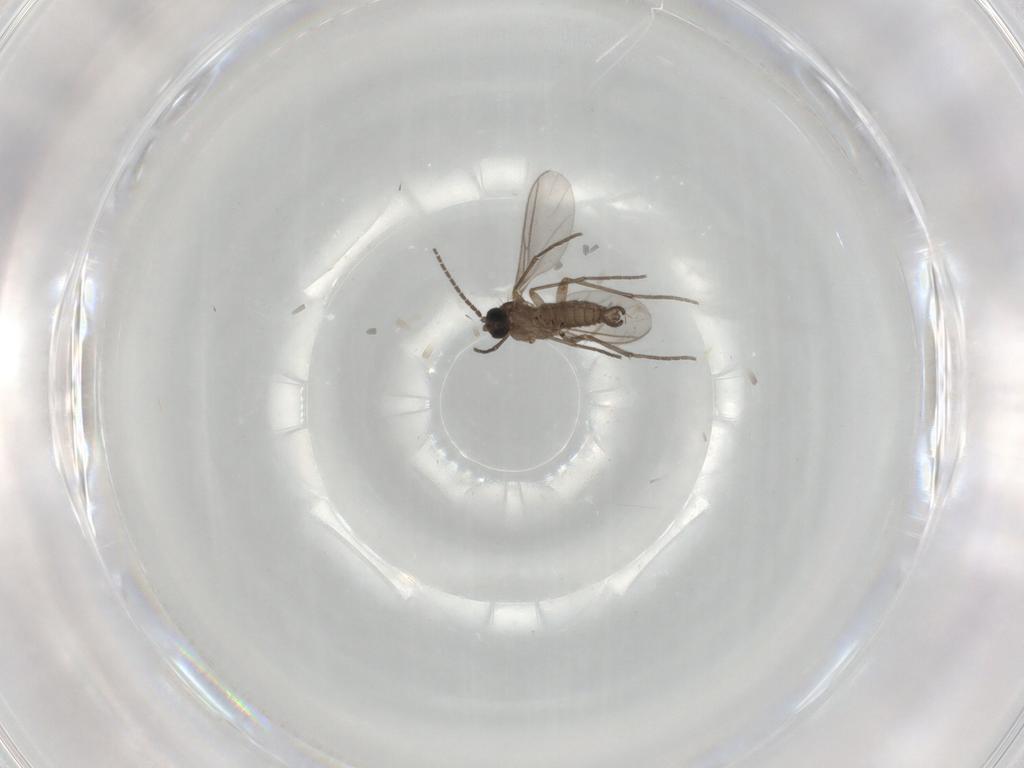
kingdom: Animalia
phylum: Arthropoda
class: Insecta
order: Diptera
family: Sciaridae
